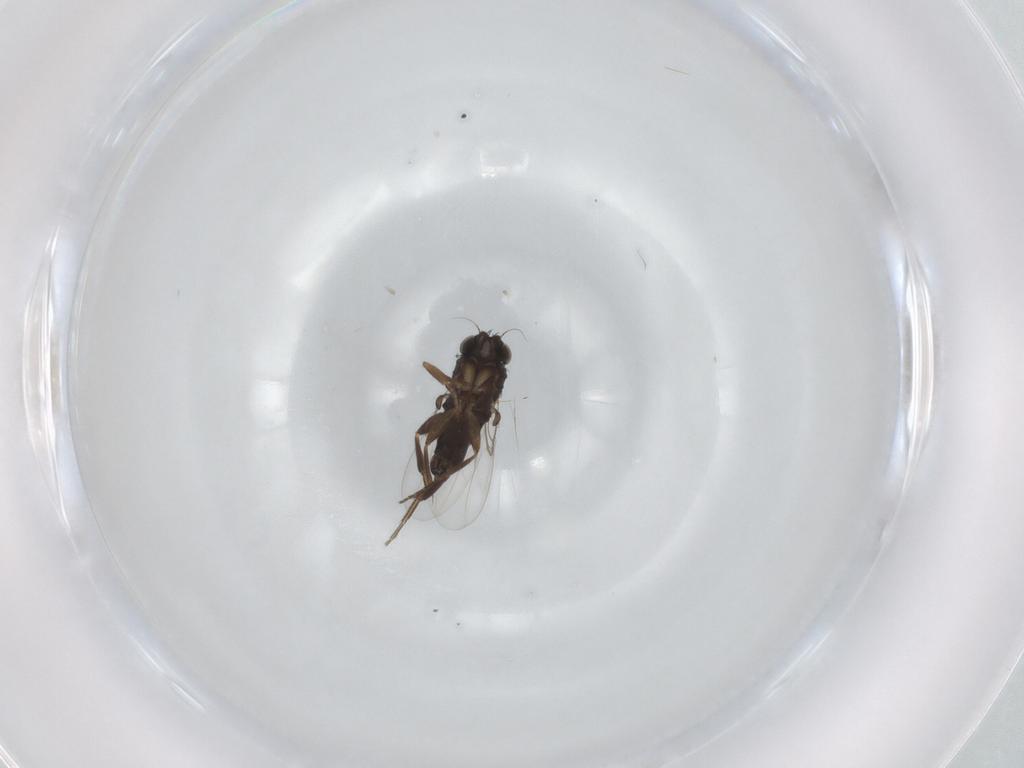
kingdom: Animalia
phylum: Arthropoda
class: Insecta
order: Diptera
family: Phoridae
